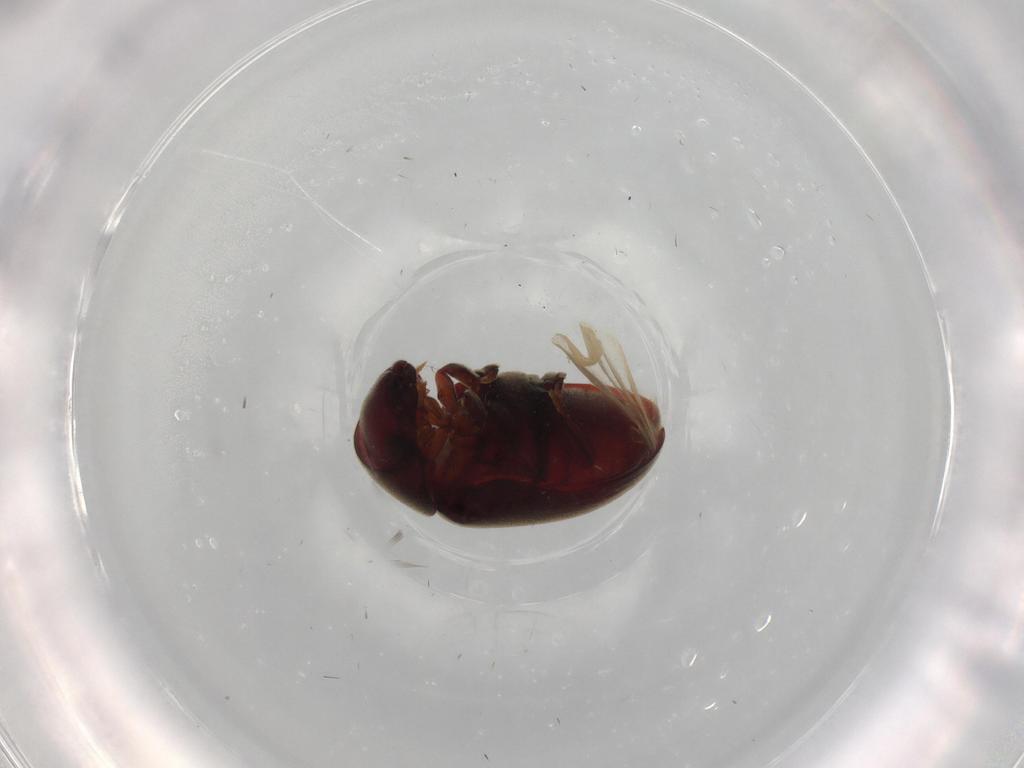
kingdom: Animalia
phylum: Arthropoda
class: Insecta
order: Coleoptera
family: Ptinidae
